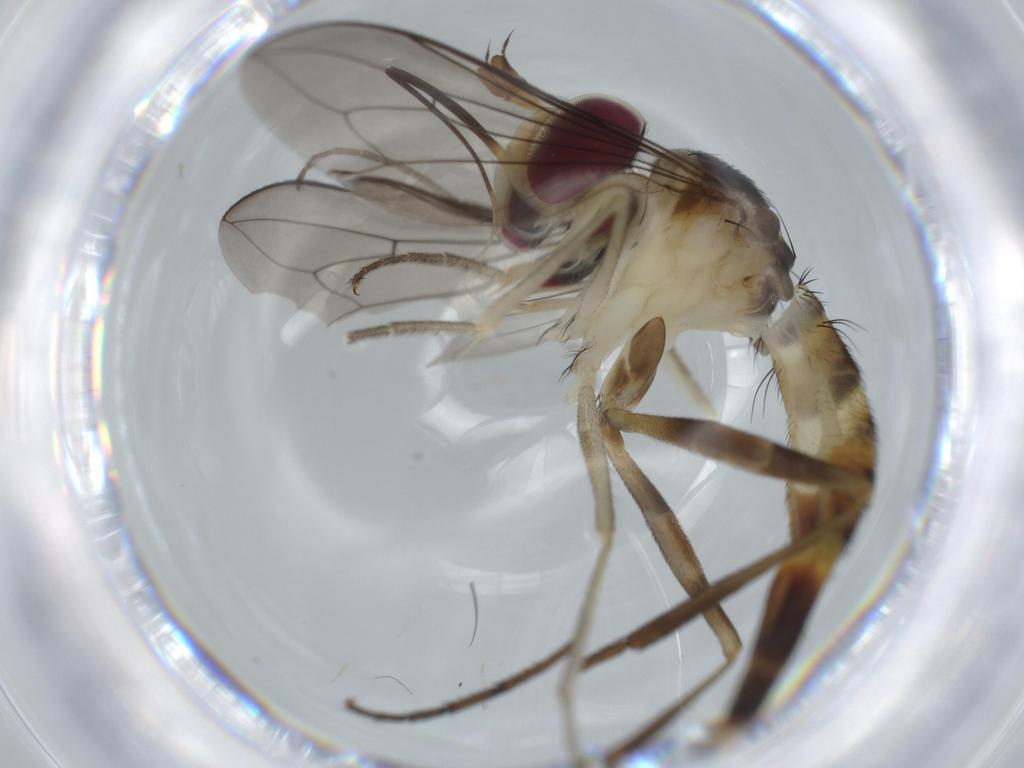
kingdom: Animalia
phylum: Arthropoda
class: Insecta
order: Diptera
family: Conopidae
